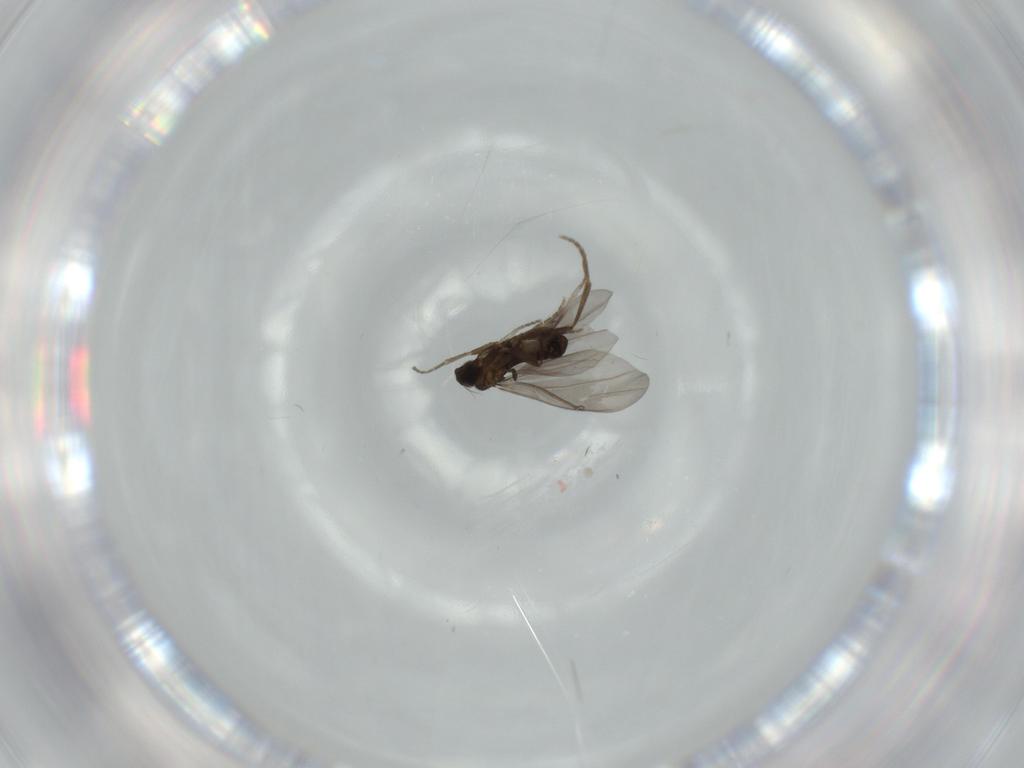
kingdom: Animalia
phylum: Arthropoda
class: Insecta
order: Diptera
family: Phoridae
